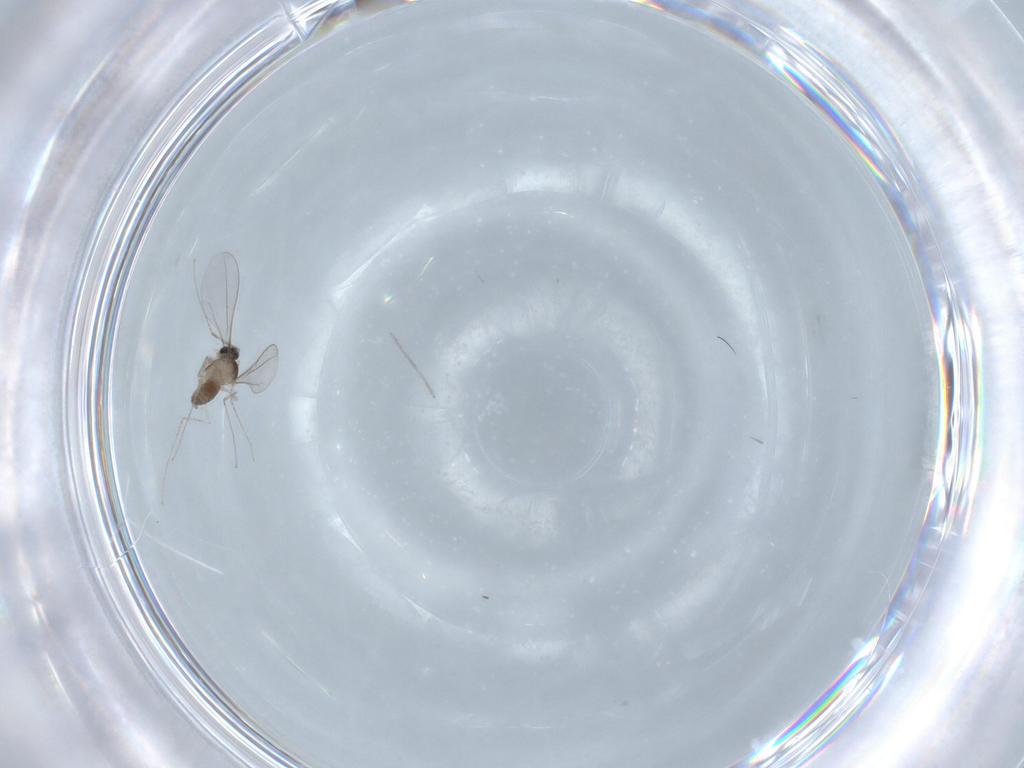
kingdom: Animalia
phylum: Arthropoda
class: Insecta
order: Diptera
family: Cecidomyiidae
